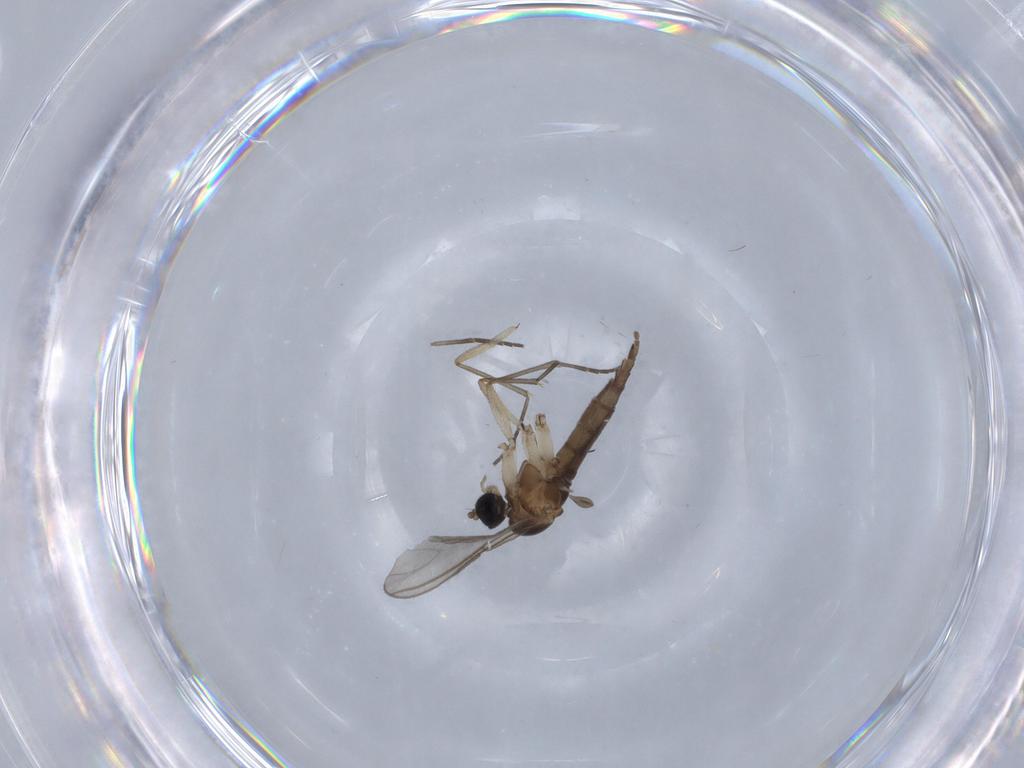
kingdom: Animalia
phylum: Arthropoda
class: Insecta
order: Diptera
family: Sciaridae
